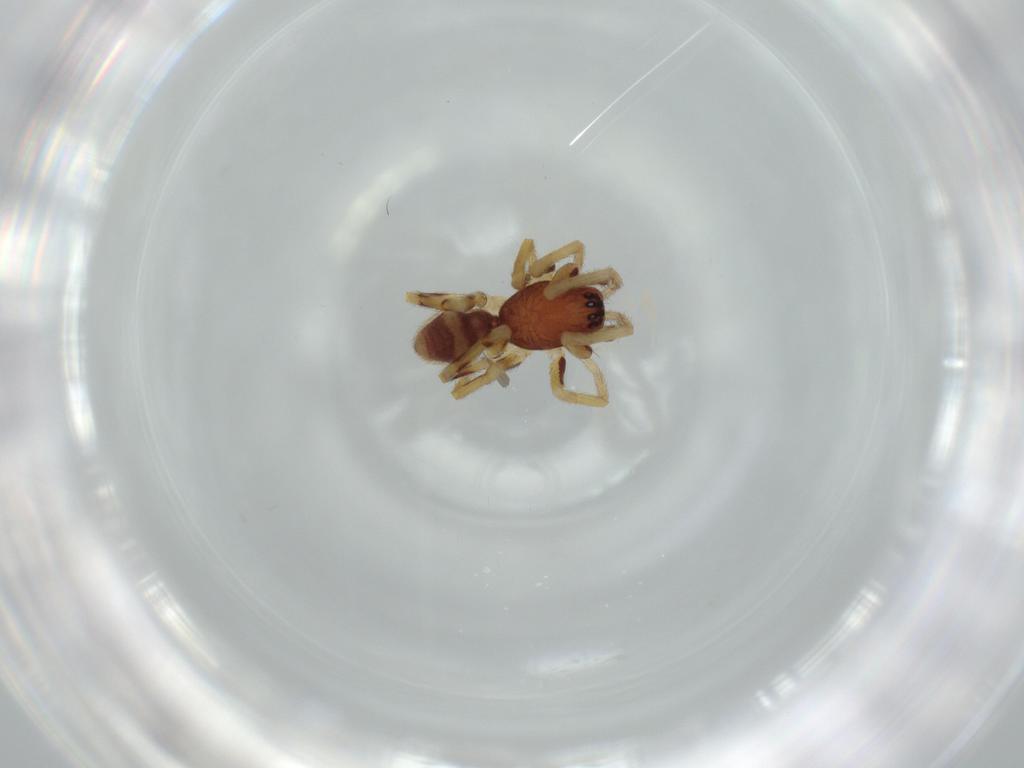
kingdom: Animalia
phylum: Arthropoda
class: Arachnida
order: Araneae
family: Corinnidae
